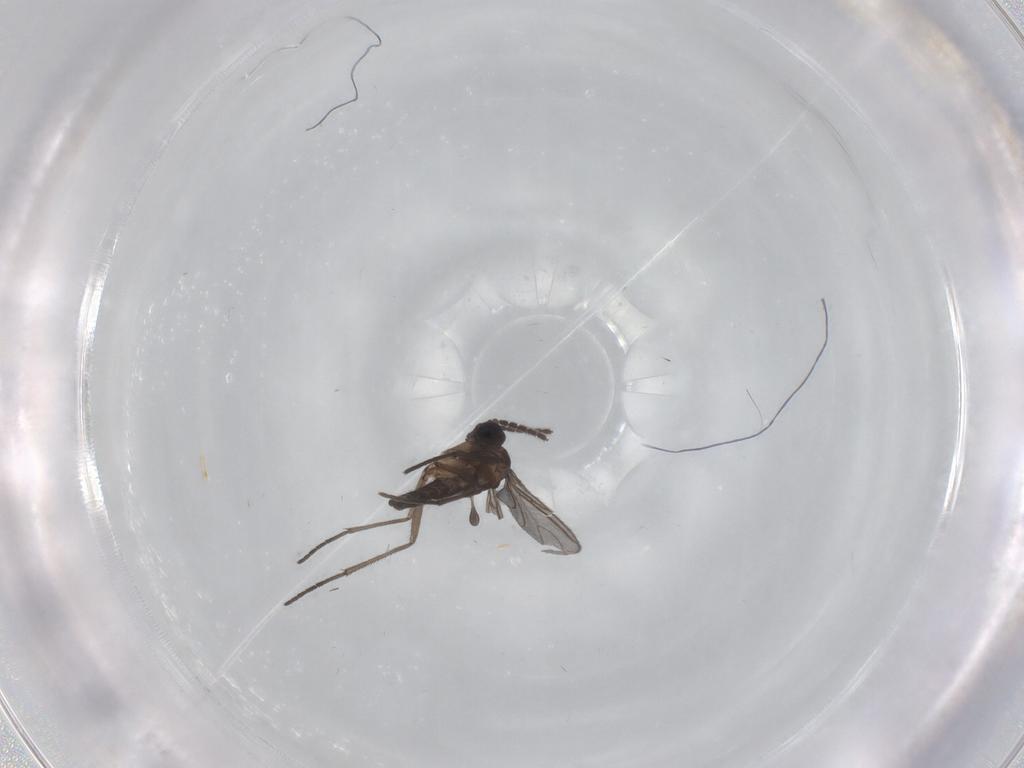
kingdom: Animalia
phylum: Arthropoda
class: Insecta
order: Diptera
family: Sciaridae
